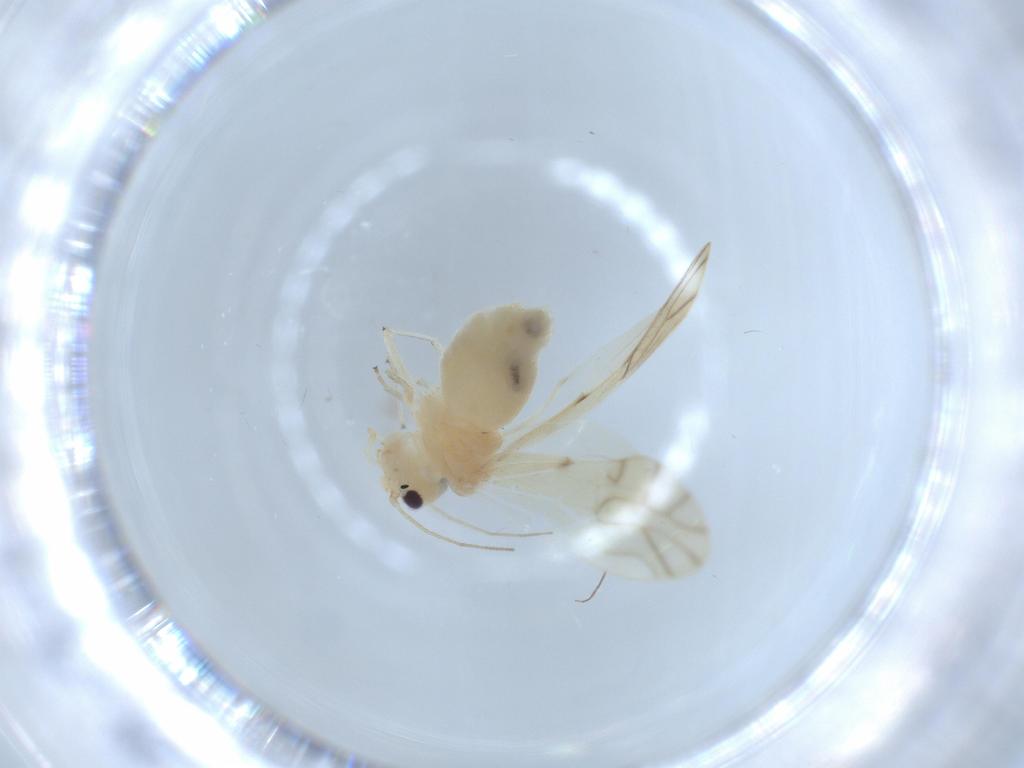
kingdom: Animalia
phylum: Arthropoda
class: Insecta
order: Psocodea
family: Caeciliusidae
